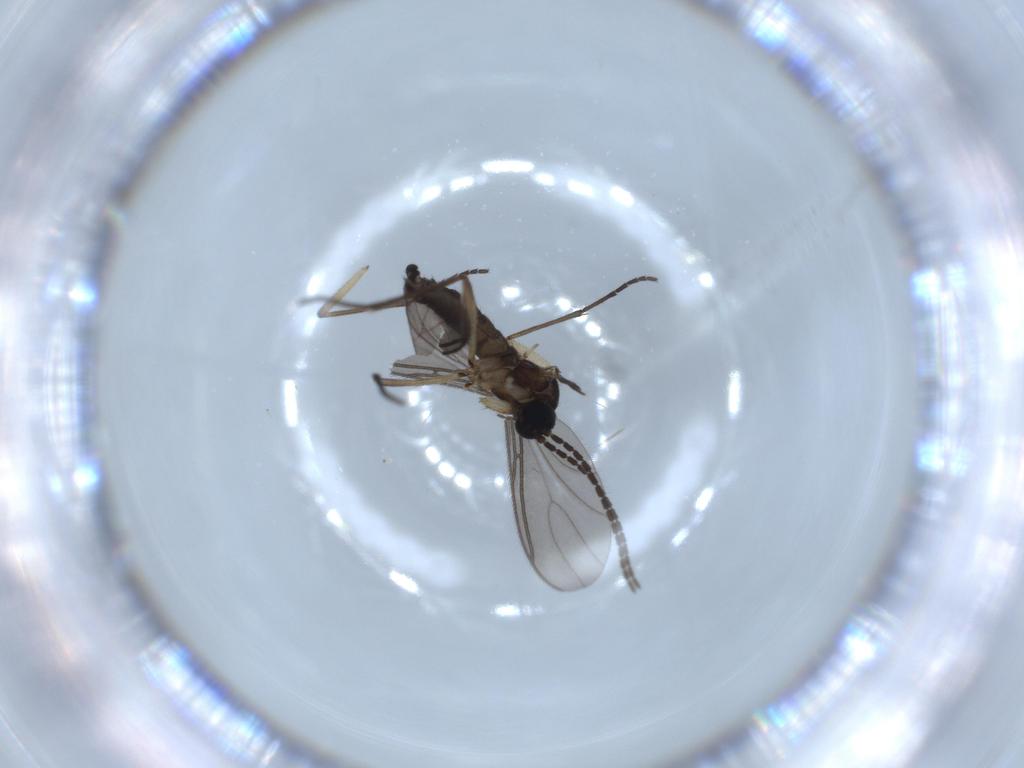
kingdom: Animalia
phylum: Arthropoda
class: Insecta
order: Diptera
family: Sciaridae
